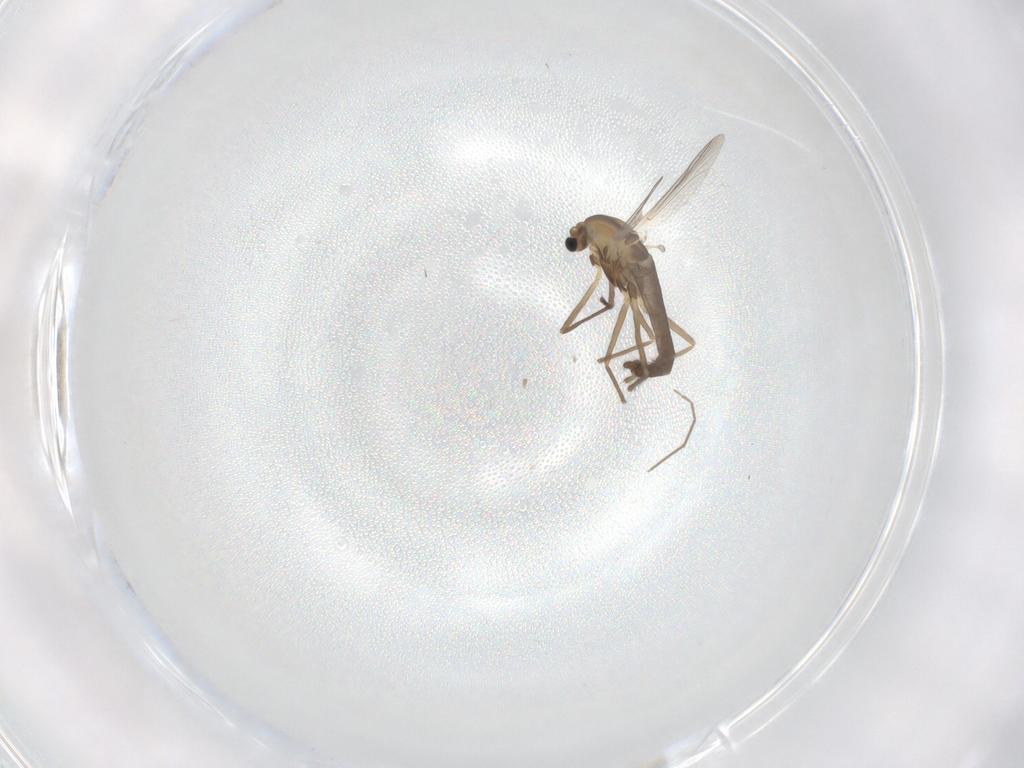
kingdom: Animalia
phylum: Arthropoda
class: Insecta
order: Diptera
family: Chironomidae
